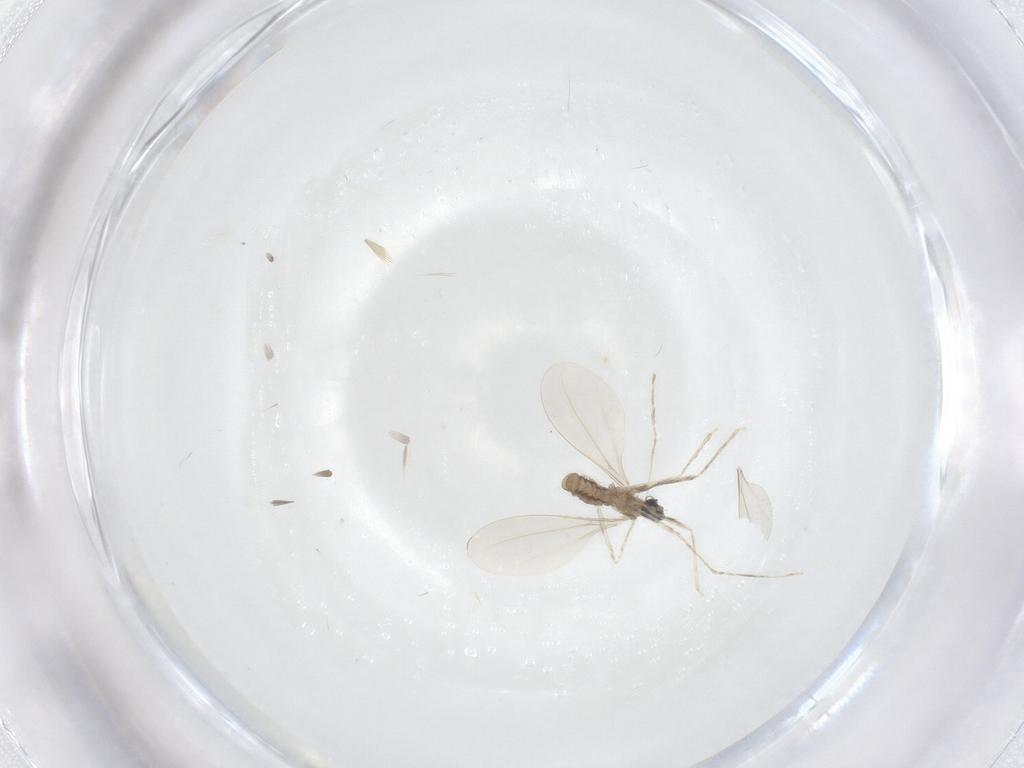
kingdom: Animalia
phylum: Arthropoda
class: Insecta
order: Diptera
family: Cecidomyiidae
